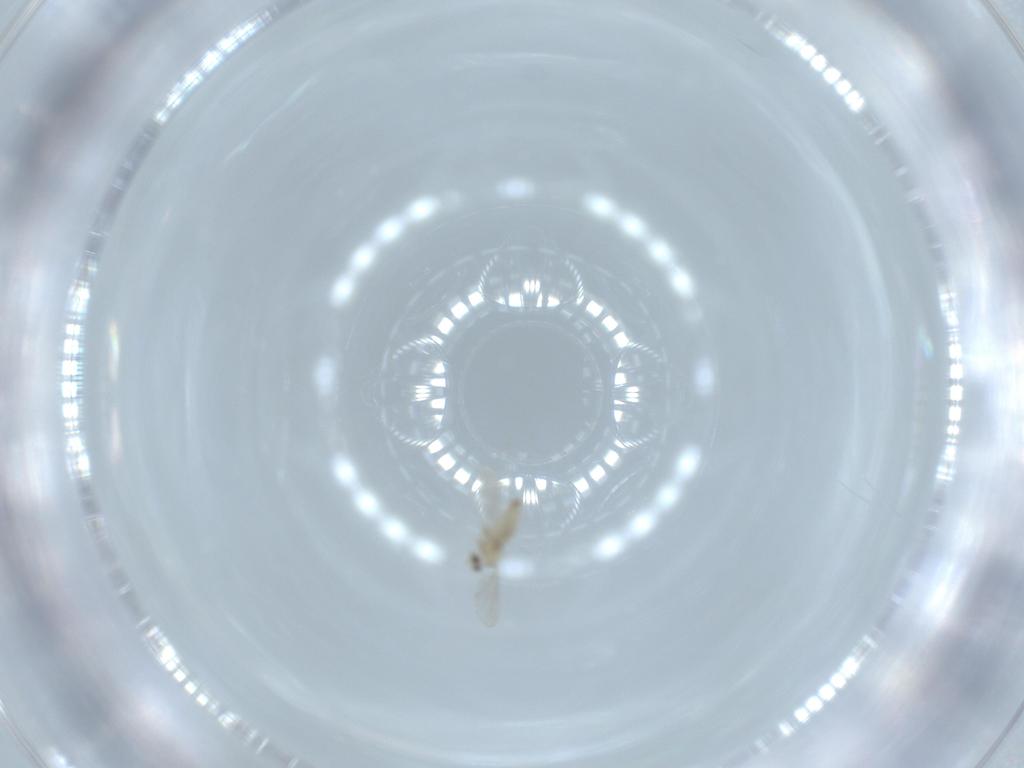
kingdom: Animalia
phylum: Arthropoda
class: Insecta
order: Diptera
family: Cecidomyiidae
